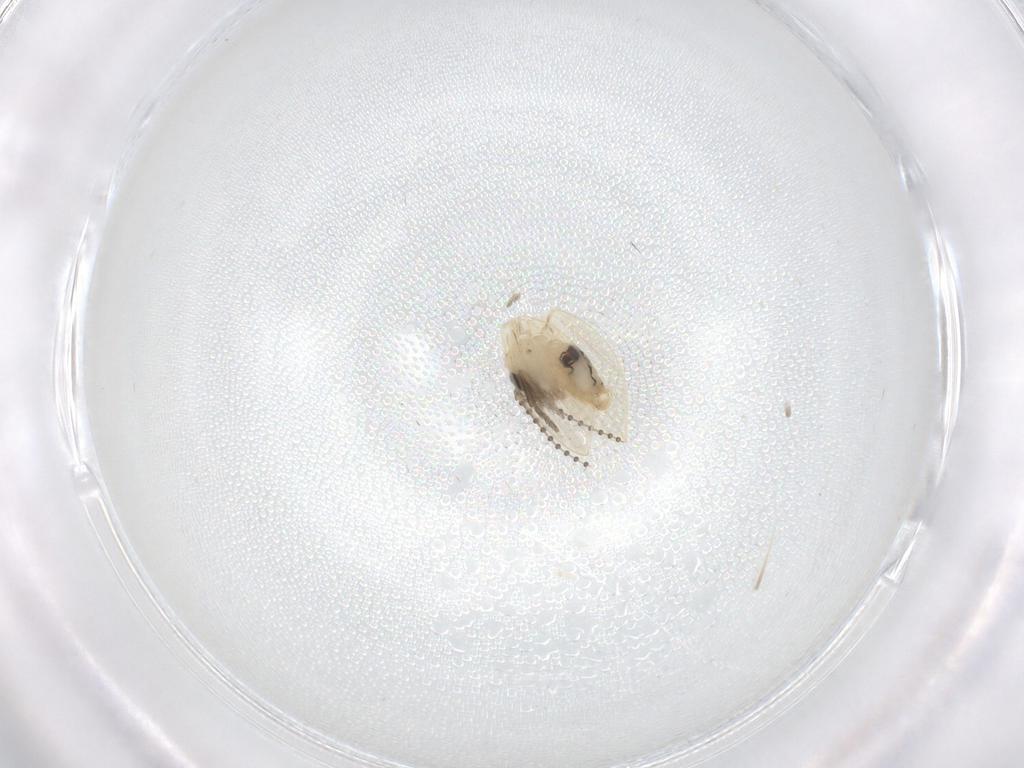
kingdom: Animalia
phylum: Arthropoda
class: Insecta
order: Diptera
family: Psychodidae
